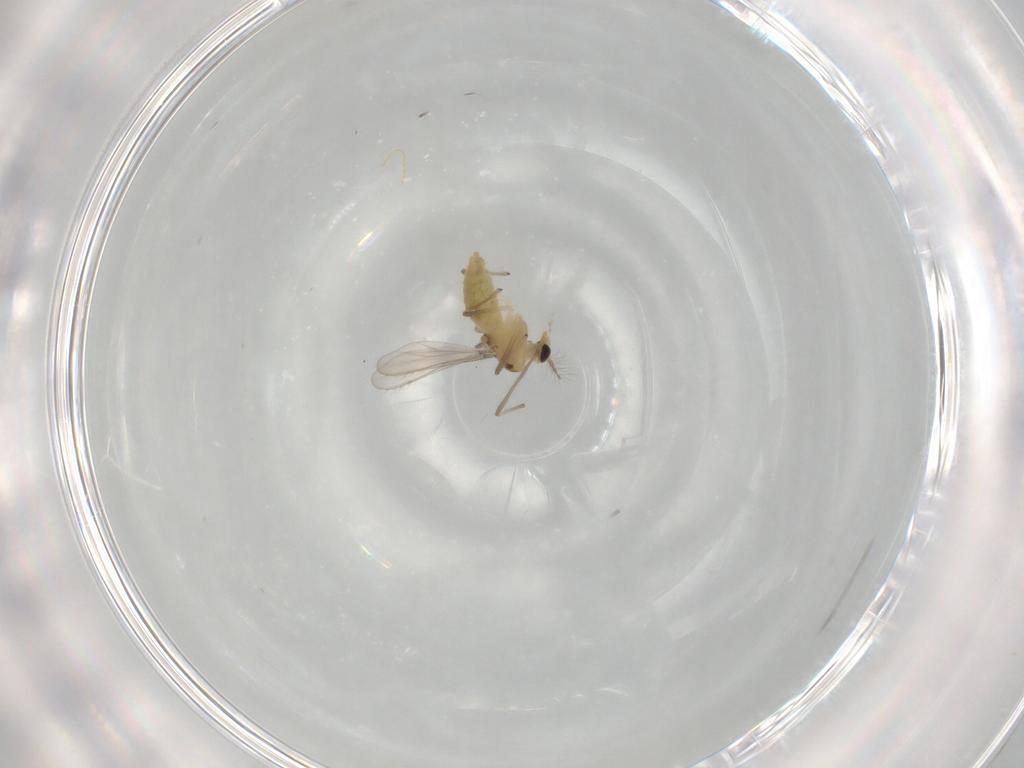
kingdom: Animalia
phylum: Arthropoda
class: Insecta
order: Diptera
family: Chironomidae
